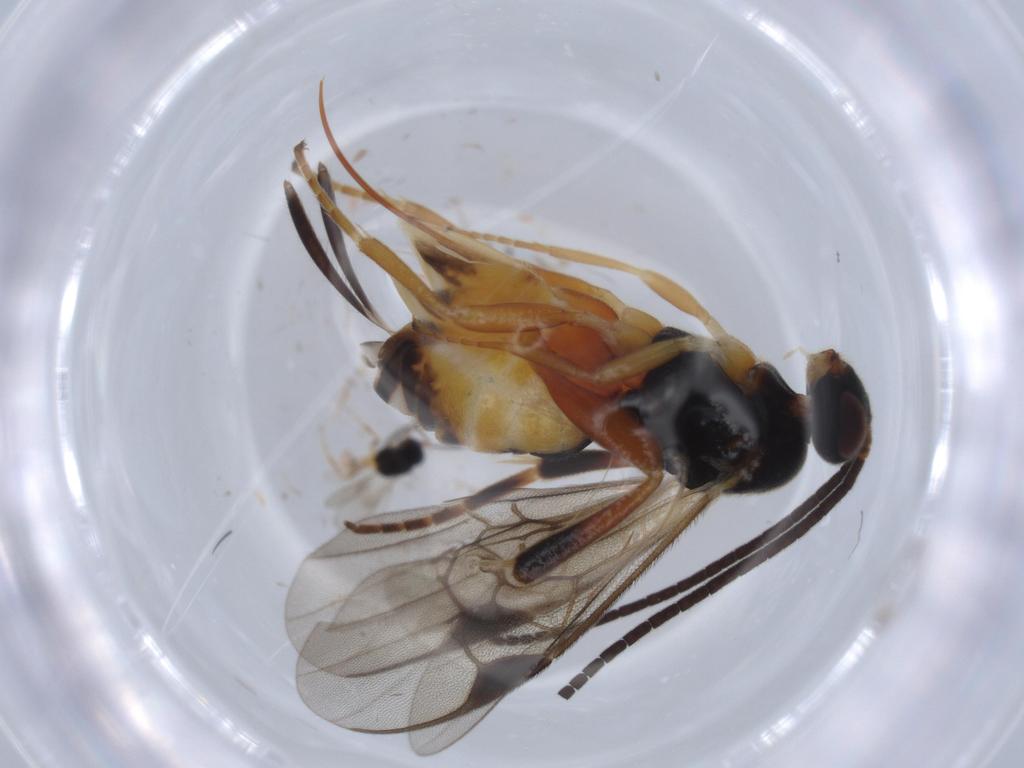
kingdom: Animalia
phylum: Arthropoda
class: Insecta
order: Hymenoptera
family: Braconidae
